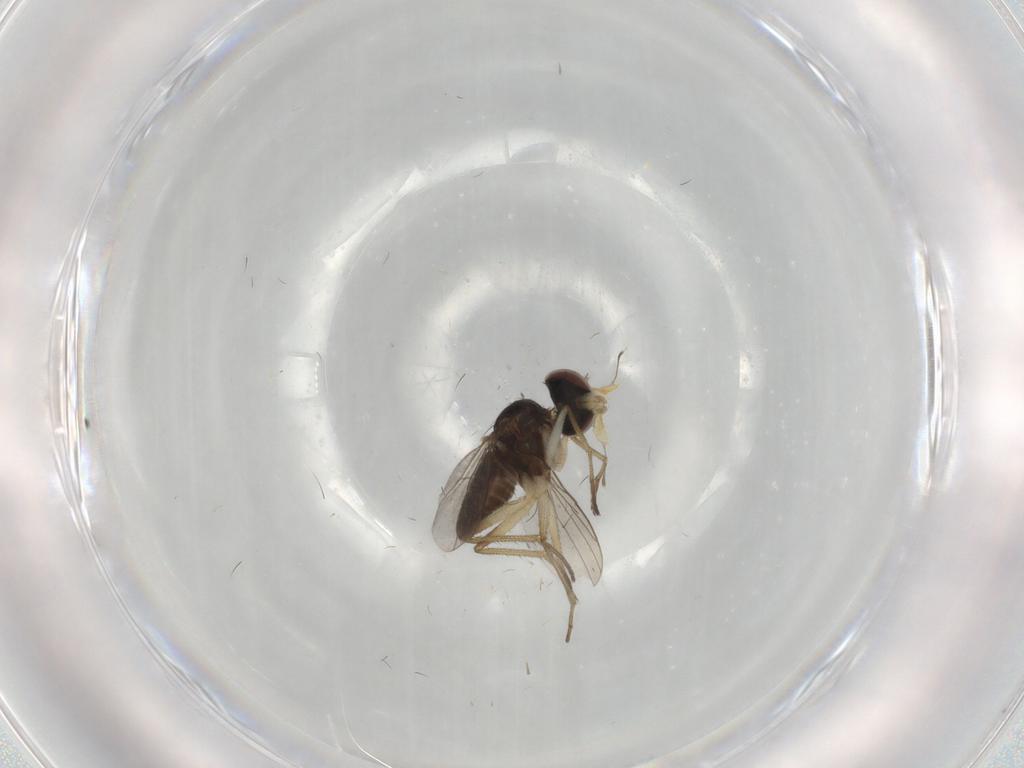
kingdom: Animalia
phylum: Arthropoda
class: Insecta
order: Diptera
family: Dolichopodidae
